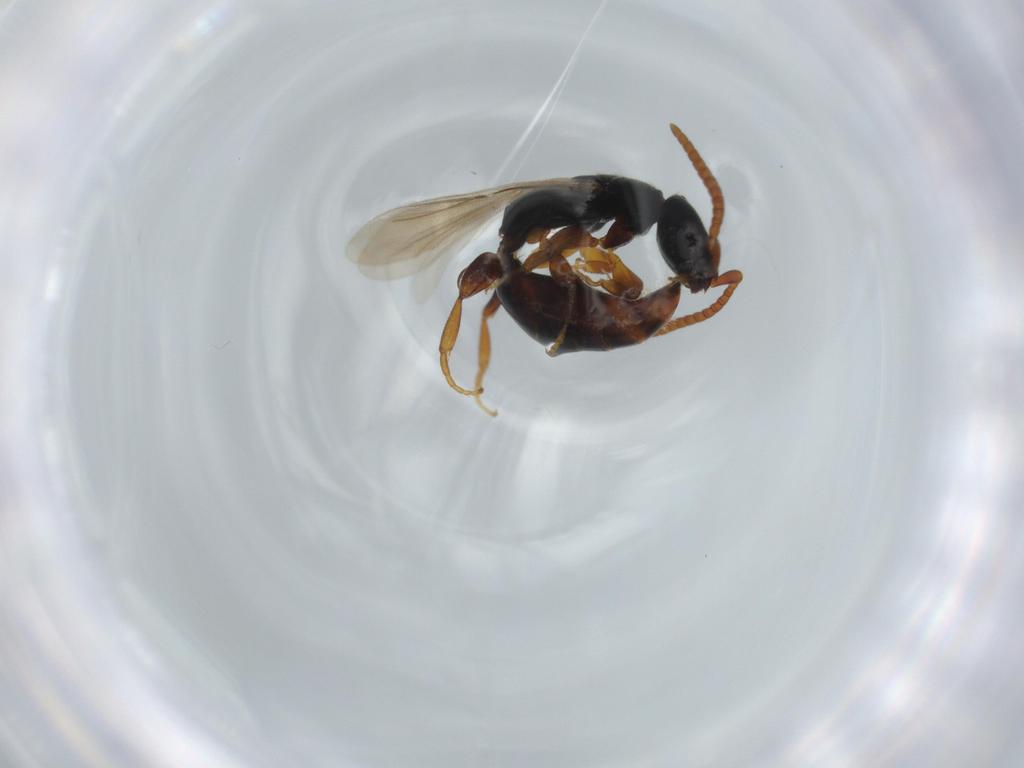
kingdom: Animalia
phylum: Arthropoda
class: Insecta
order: Hymenoptera
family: Bethylidae
